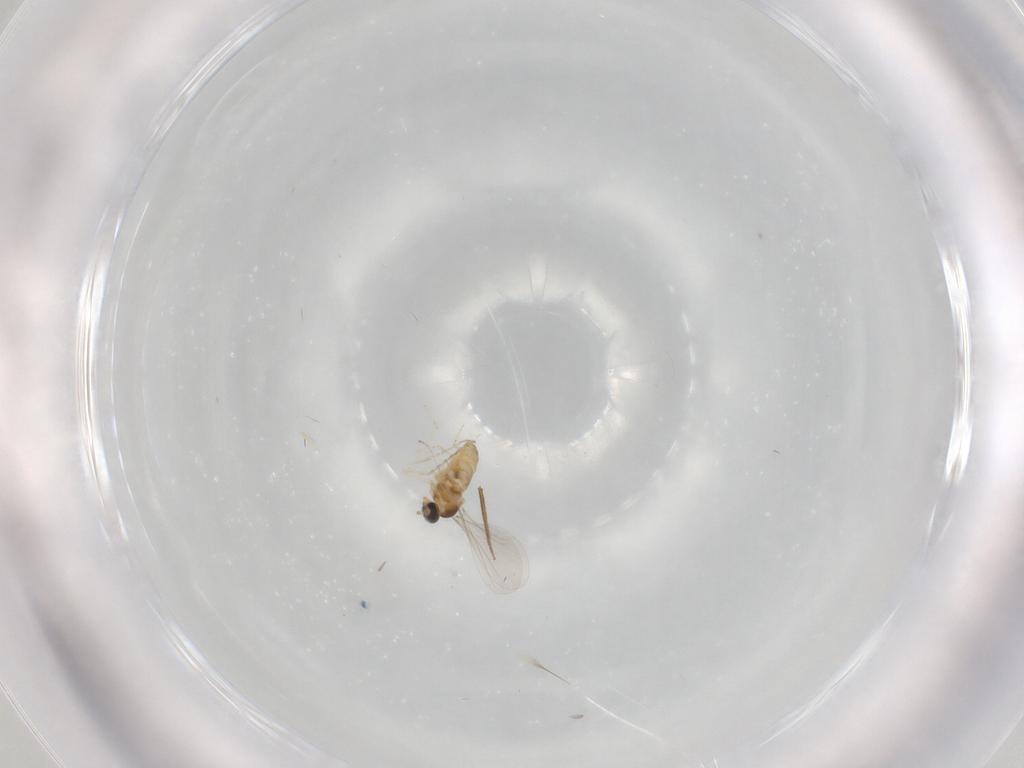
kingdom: Animalia
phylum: Arthropoda
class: Insecta
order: Diptera
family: Cecidomyiidae
